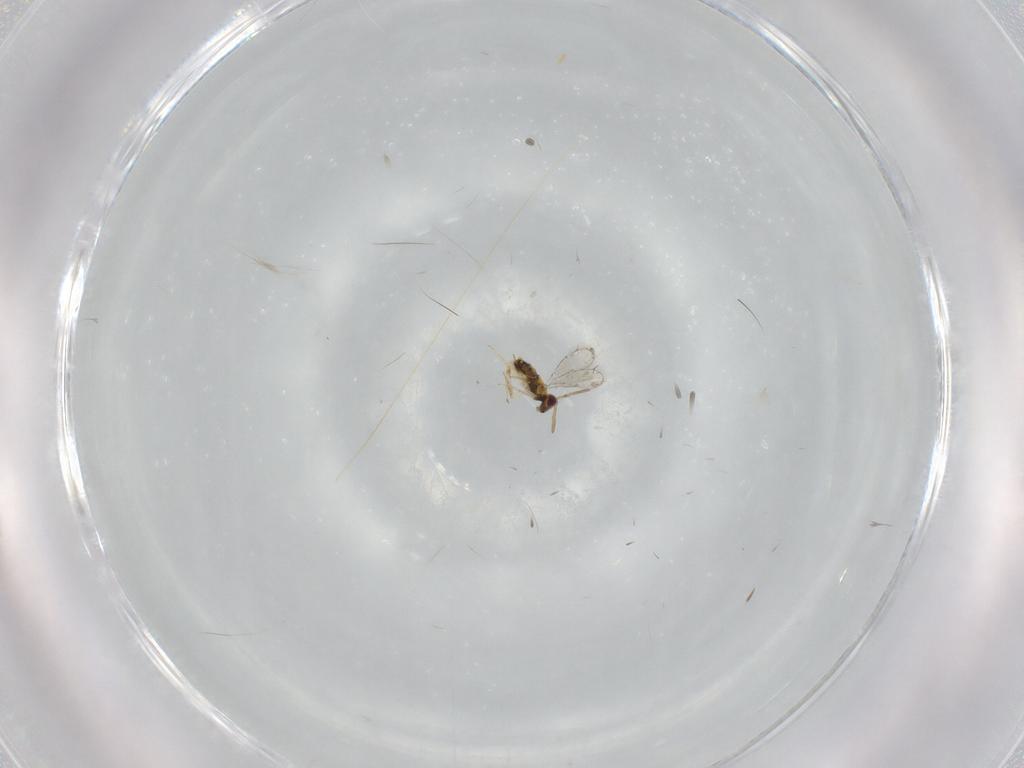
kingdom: Animalia
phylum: Arthropoda
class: Insecta
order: Hymenoptera
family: Aphelinidae
